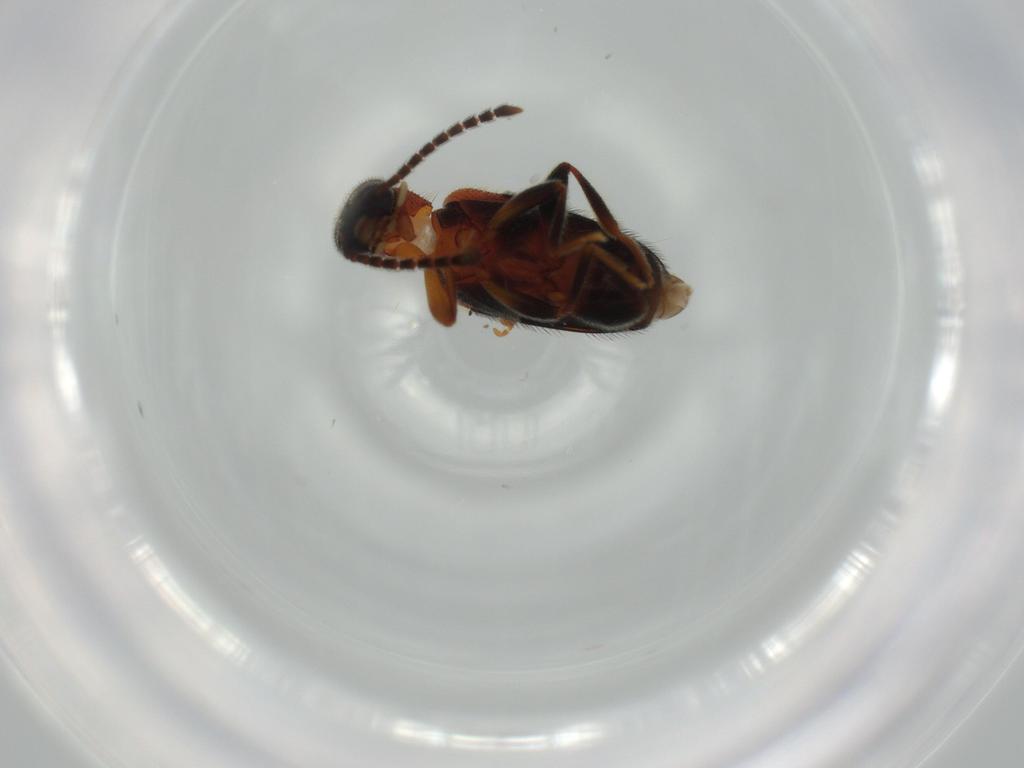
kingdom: Animalia
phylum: Arthropoda
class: Insecta
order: Coleoptera
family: Aderidae
